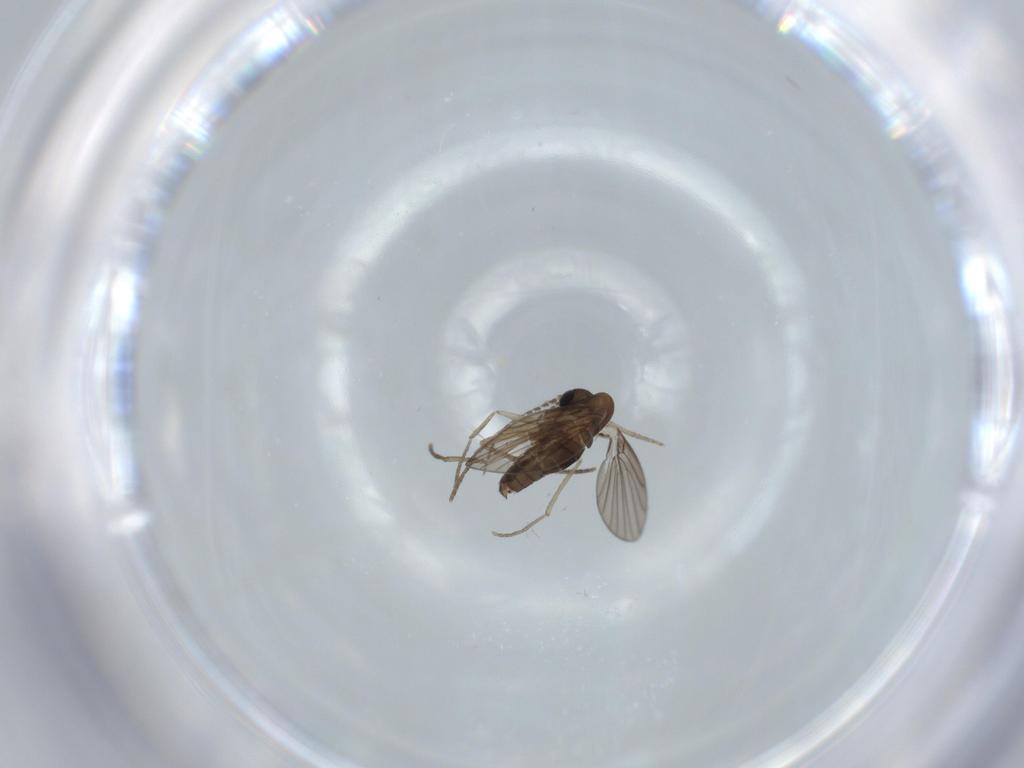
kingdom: Animalia
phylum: Arthropoda
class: Insecta
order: Diptera
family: Psychodidae
